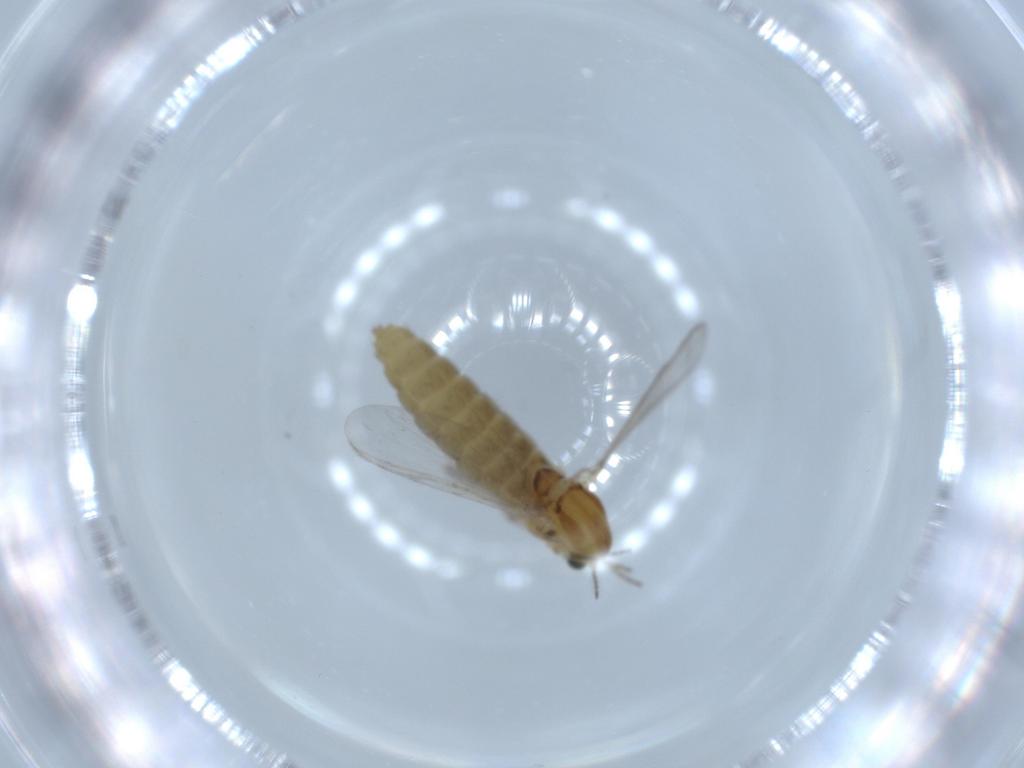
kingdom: Animalia
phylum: Arthropoda
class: Insecta
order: Diptera
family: Chironomidae
